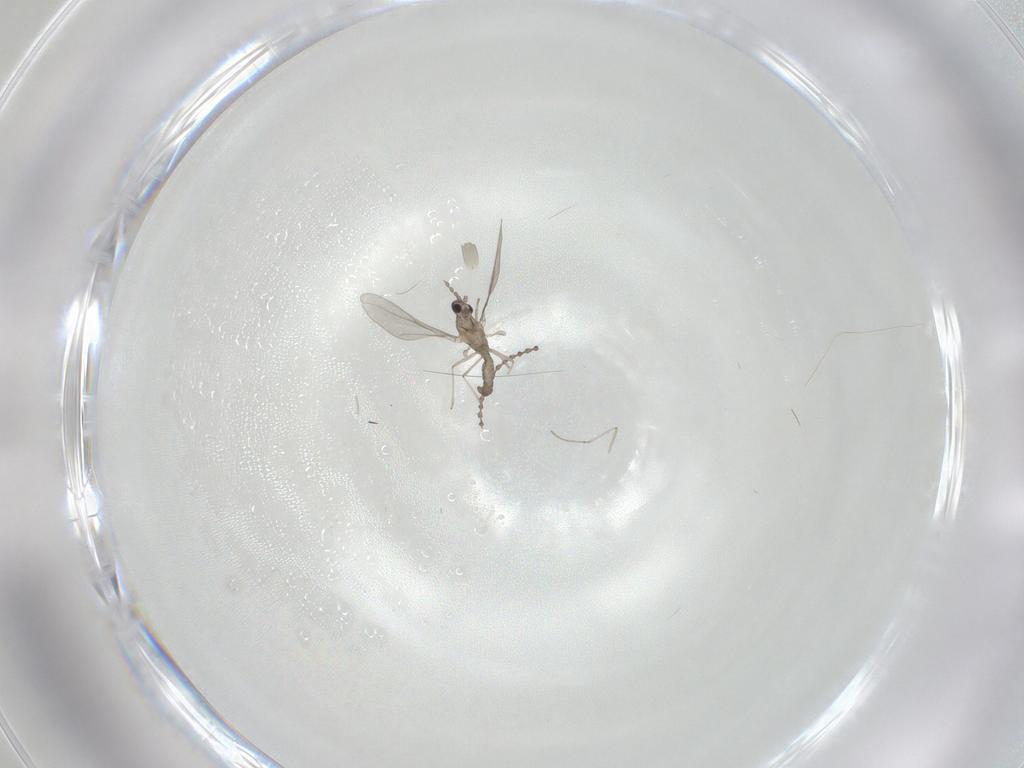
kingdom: Animalia
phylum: Arthropoda
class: Insecta
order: Diptera
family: Cecidomyiidae
